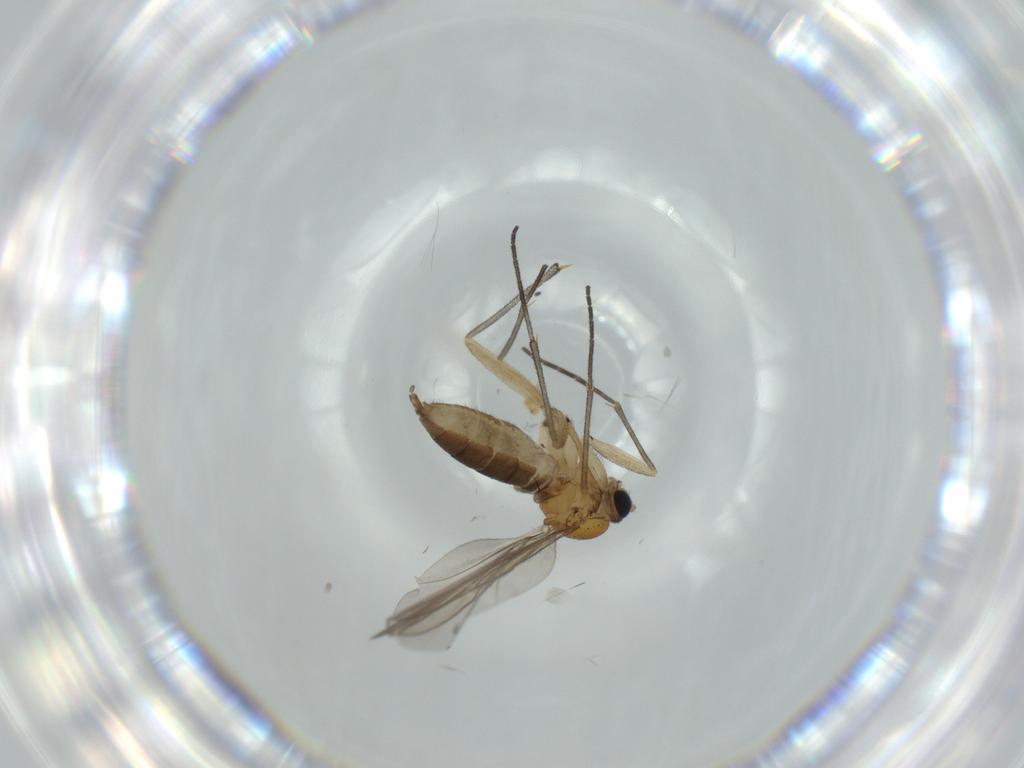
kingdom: Animalia
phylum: Arthropoda
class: Insecta
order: Diptera
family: Sciaridae
